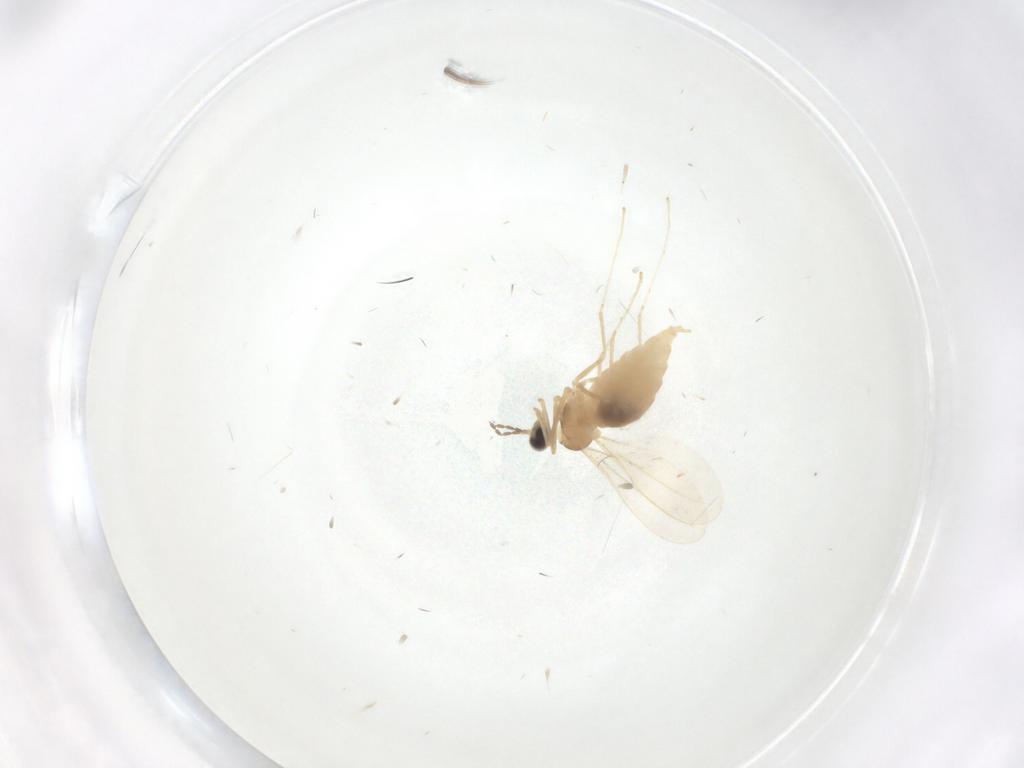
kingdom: Animalia
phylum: Arthropoda
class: Insecta
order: Diptera
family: Cecidomyiidae
